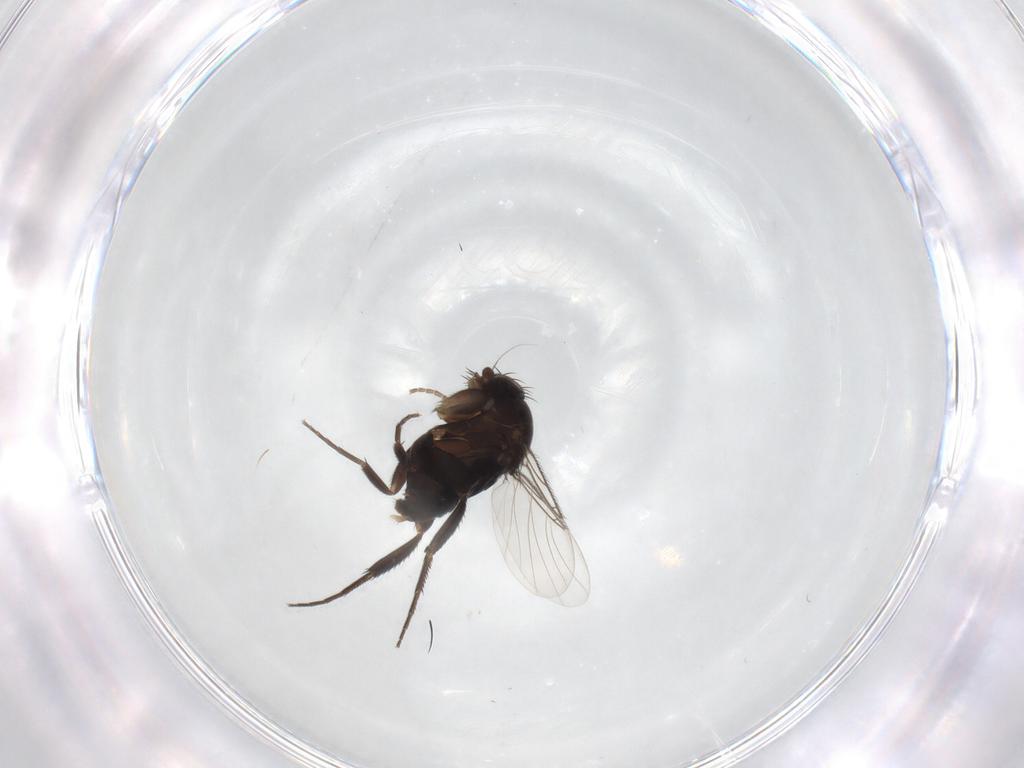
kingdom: Animalia
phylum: Arthropoda
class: Insecta
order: Diptera
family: Phoridae
